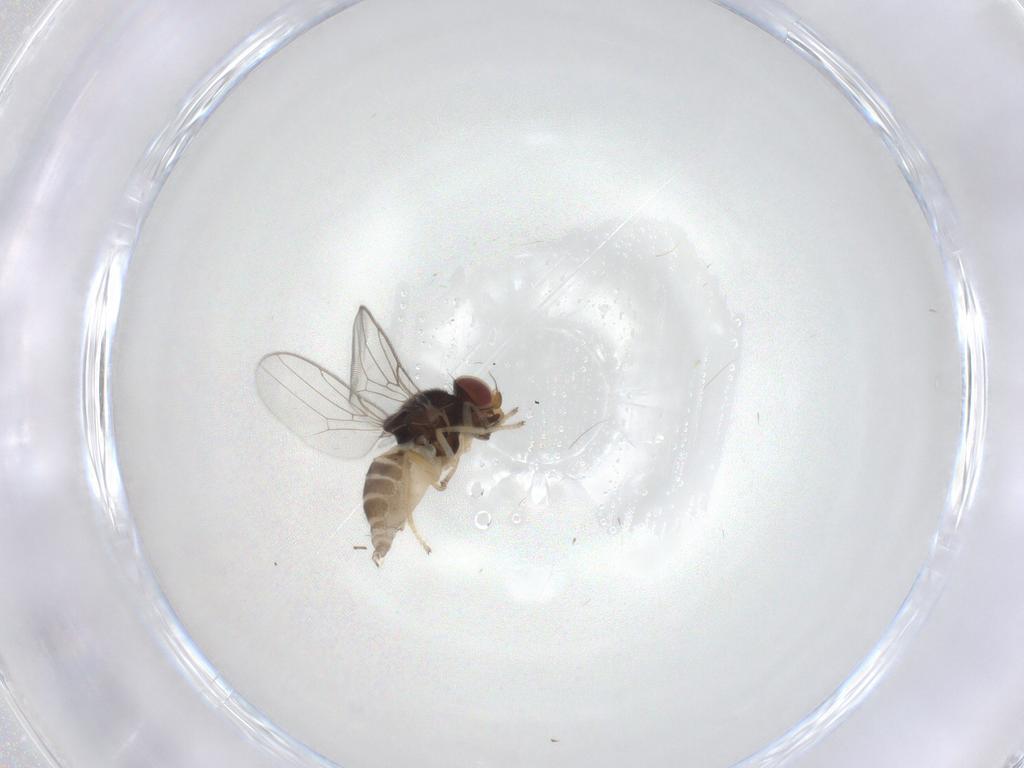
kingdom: Animalia
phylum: Arthropoda
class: Insecta
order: Diptera
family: Chloropidae
